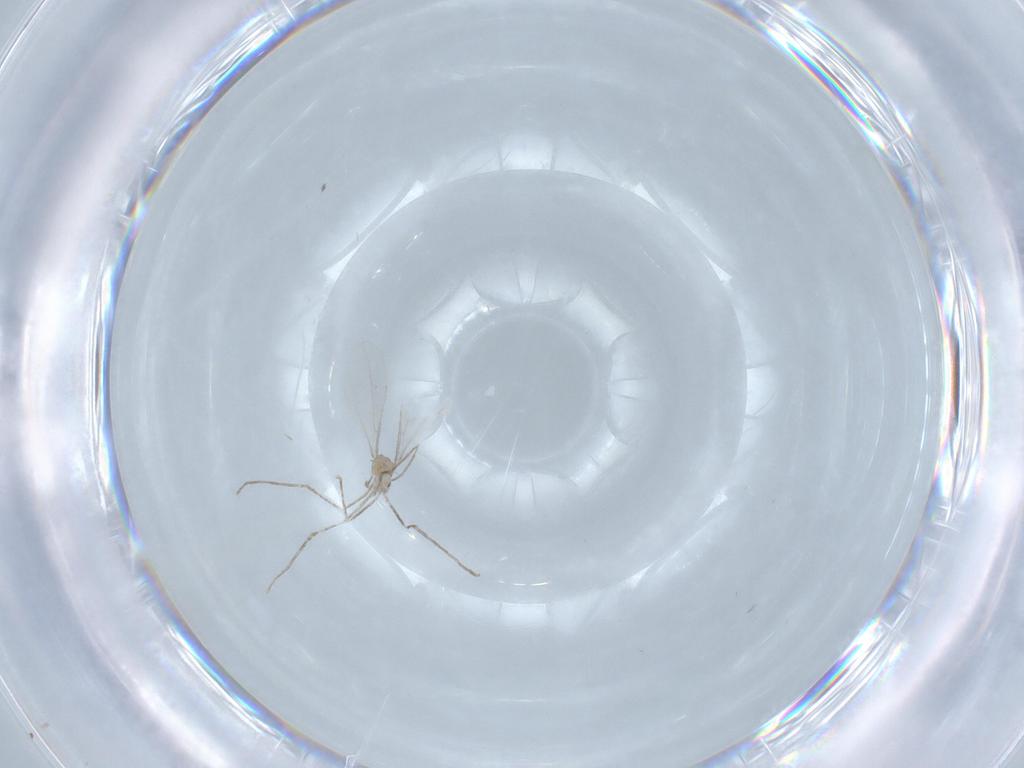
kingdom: Animalia
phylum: Arthropoda
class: Insecta
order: Diptera
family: Cecidomyiidae
